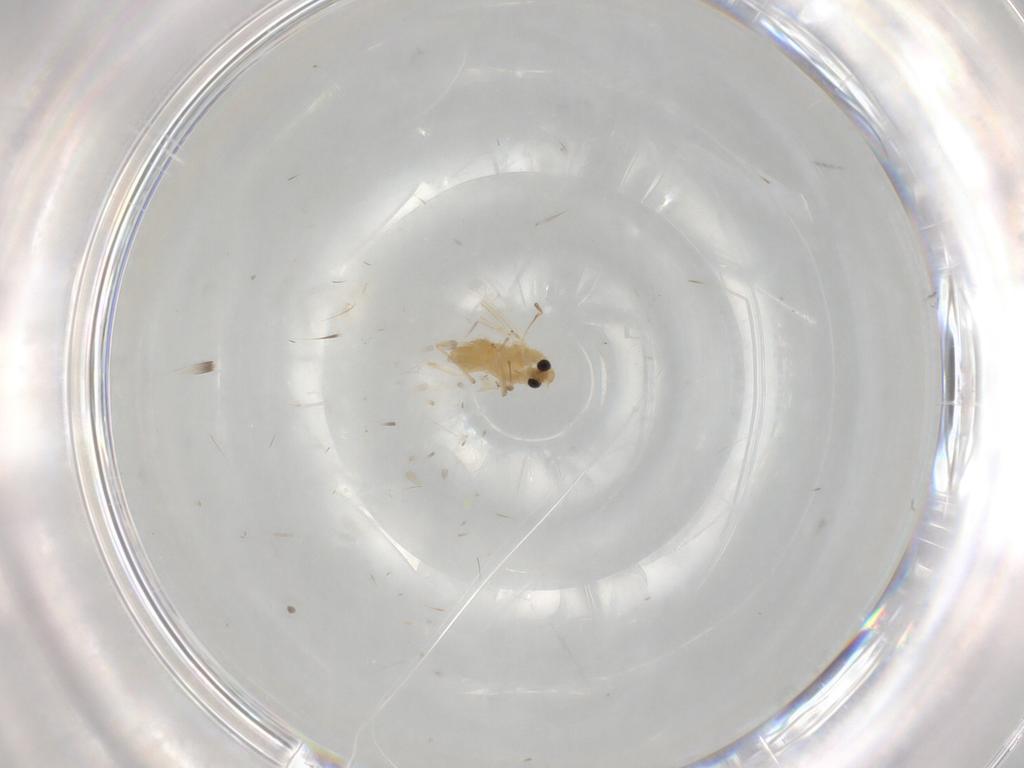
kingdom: Animalia
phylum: Arthropoda
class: Insecta
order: Diptera
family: Chironomidae
